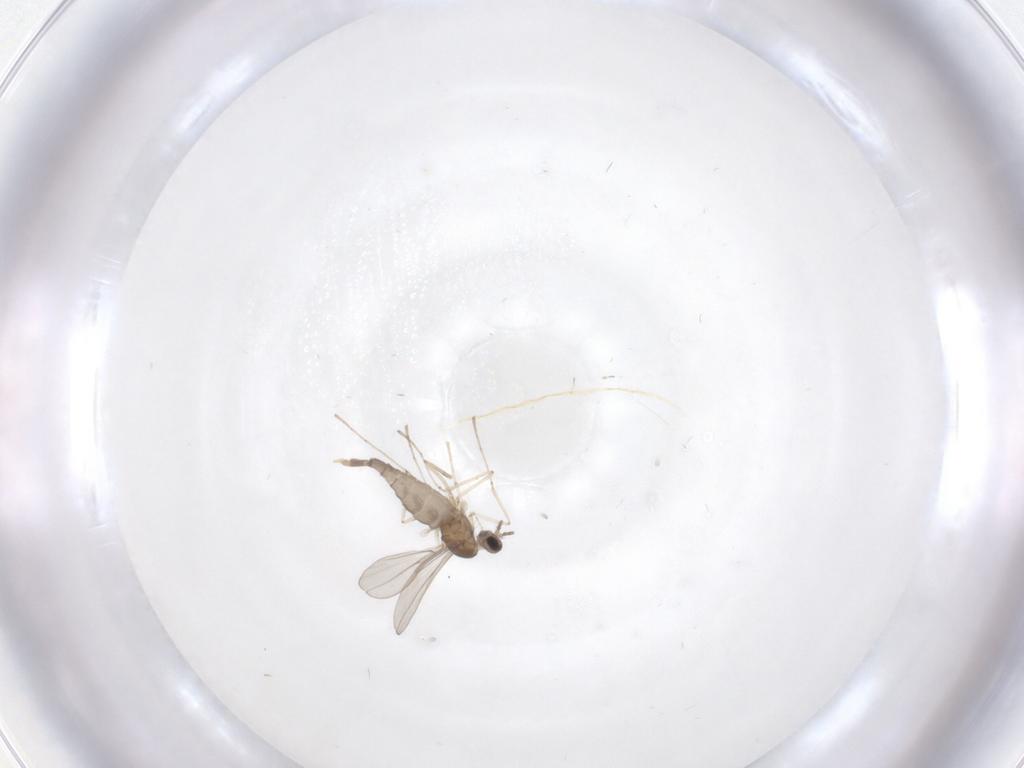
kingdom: Animalia
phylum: Arthropoda
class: Insecta
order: Diptera
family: Cecidomyiidae
